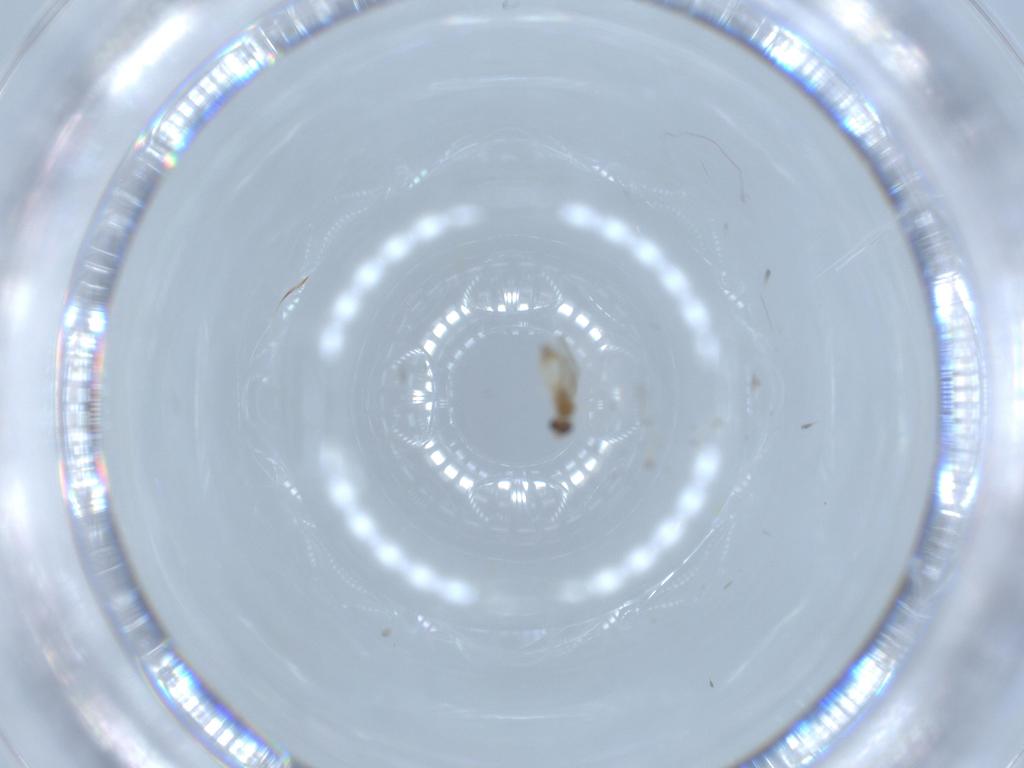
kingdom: Animalia
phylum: Arthropoda
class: Insecta
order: Diptera
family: Cecidomyiidae
